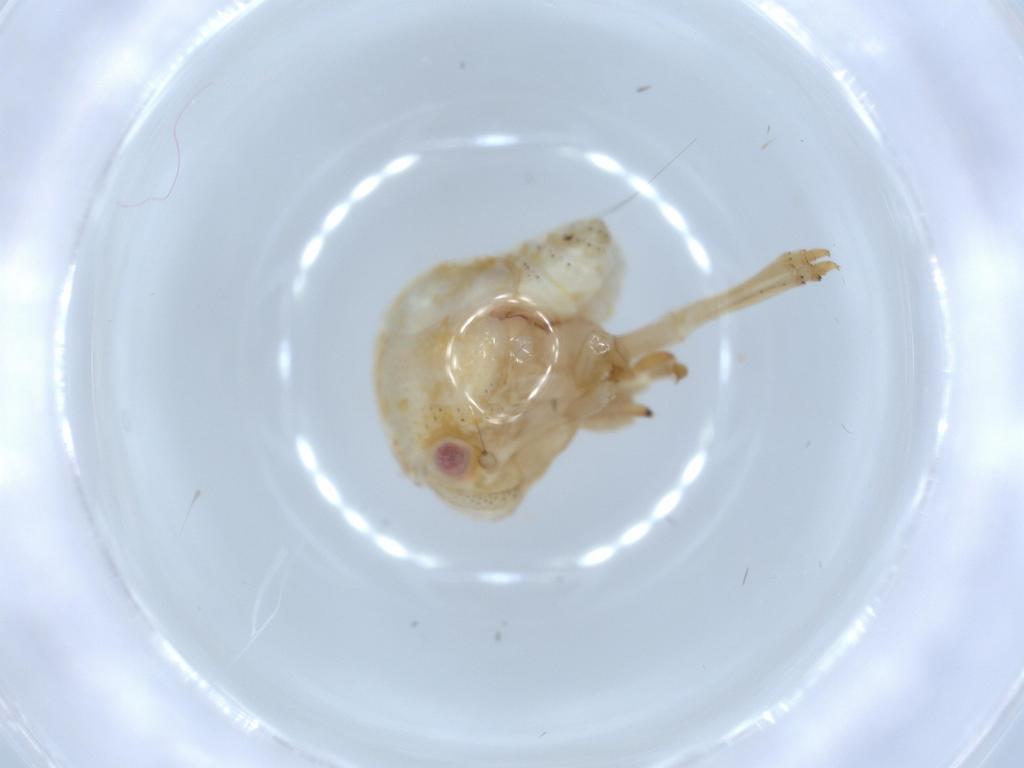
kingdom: Animalia
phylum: Arthropoda
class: Insecta
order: Hemiptera
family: Acanaloniidae
